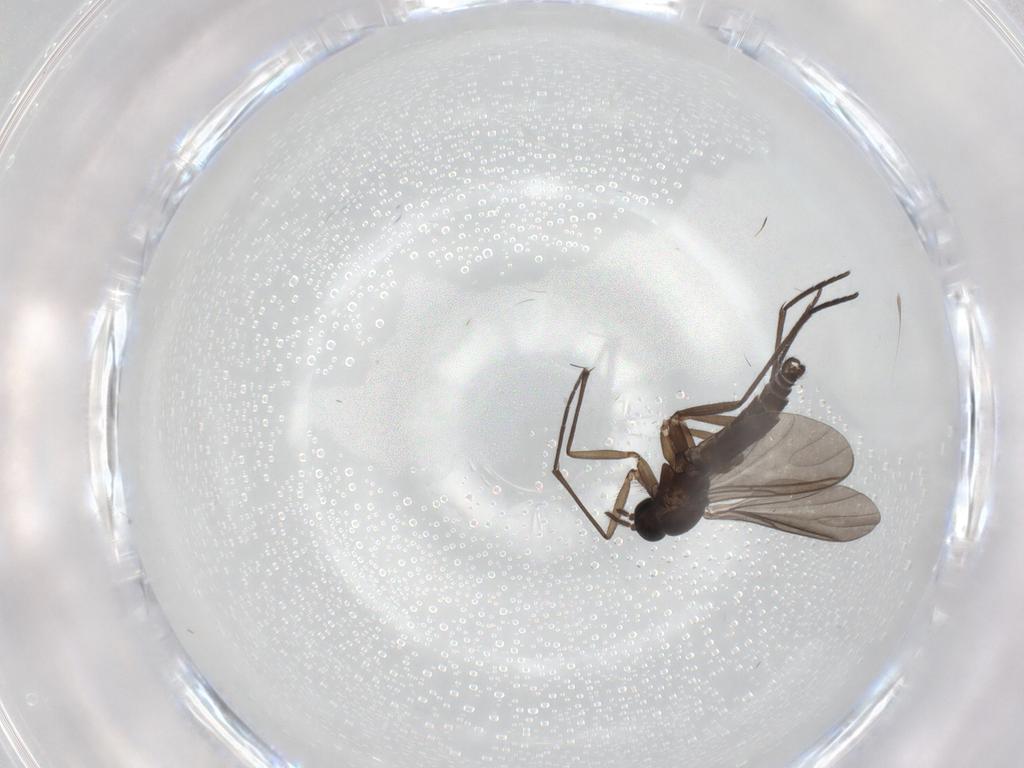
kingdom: Animalia
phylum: Arthropoda
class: Insecta
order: Diptera
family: Sciaridae
